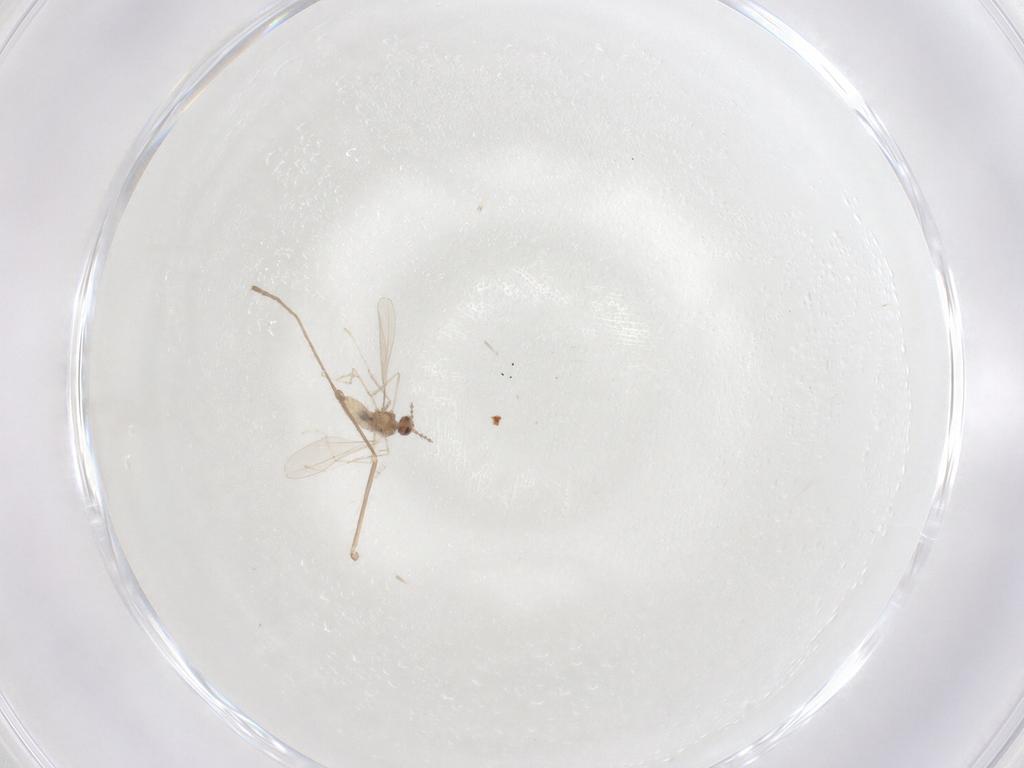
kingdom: Animalia
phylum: Arthropoda
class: Insecta
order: Diptera
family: Cecidomyiidae
